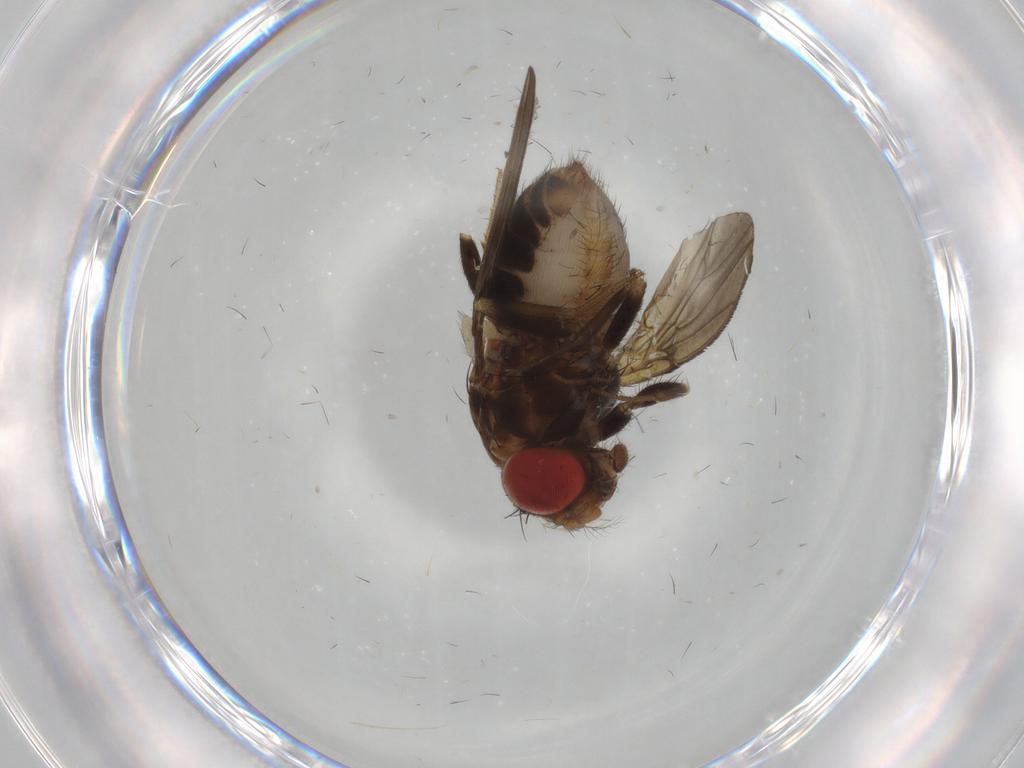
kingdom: Animalia
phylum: Arthropoda
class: Insecta
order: Diptera
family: Drosophilidae
